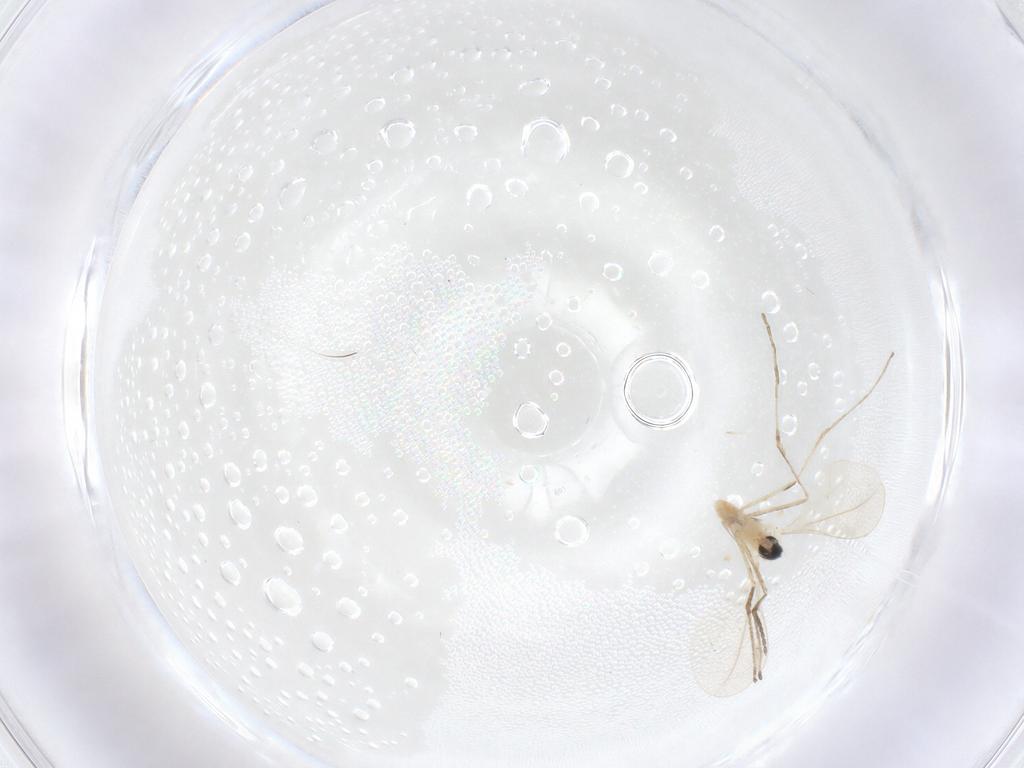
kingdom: Animalia
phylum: Arthropoda
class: Insecta
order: Diptera
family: Cecidomyiidae
